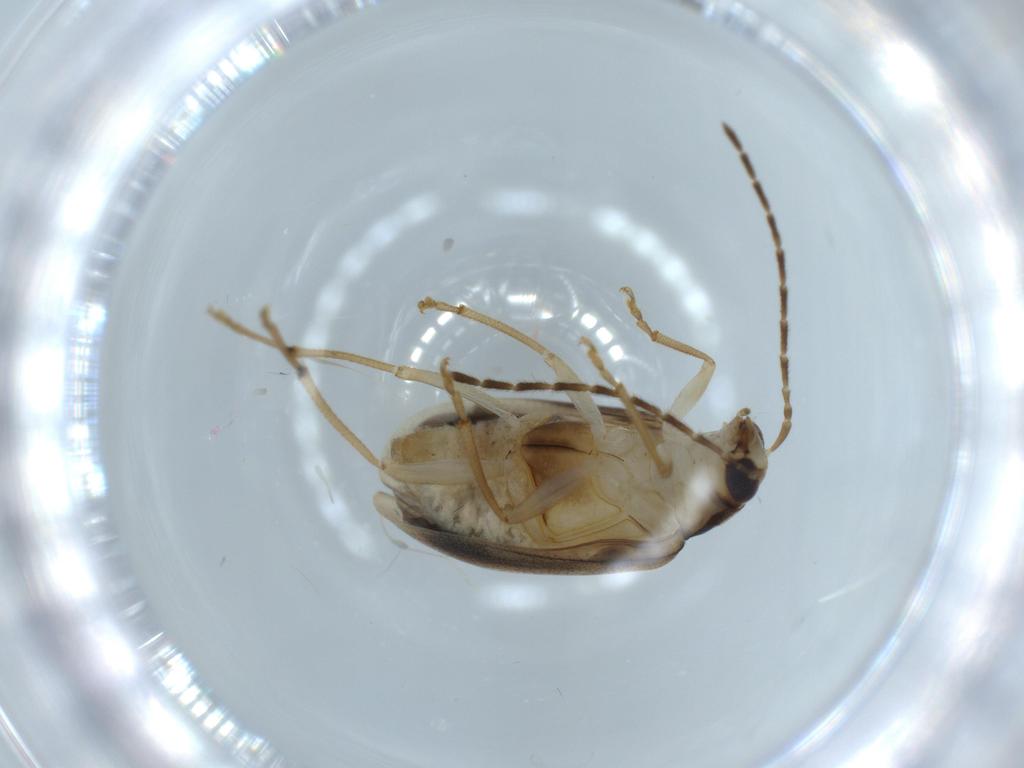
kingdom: Animalia
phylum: Arthropoda
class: Insecta
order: Coleoptera
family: Chrysomelidae
